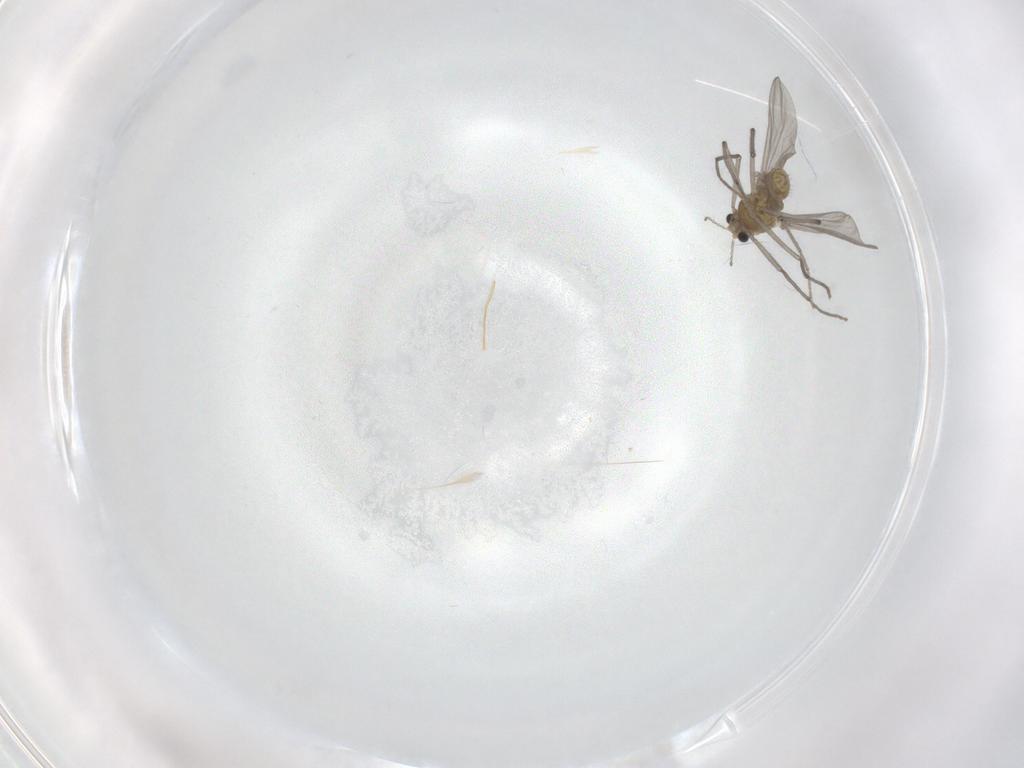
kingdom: Animalia
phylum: Arthropoda
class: Insecta
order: Diptera
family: Chironomidae
